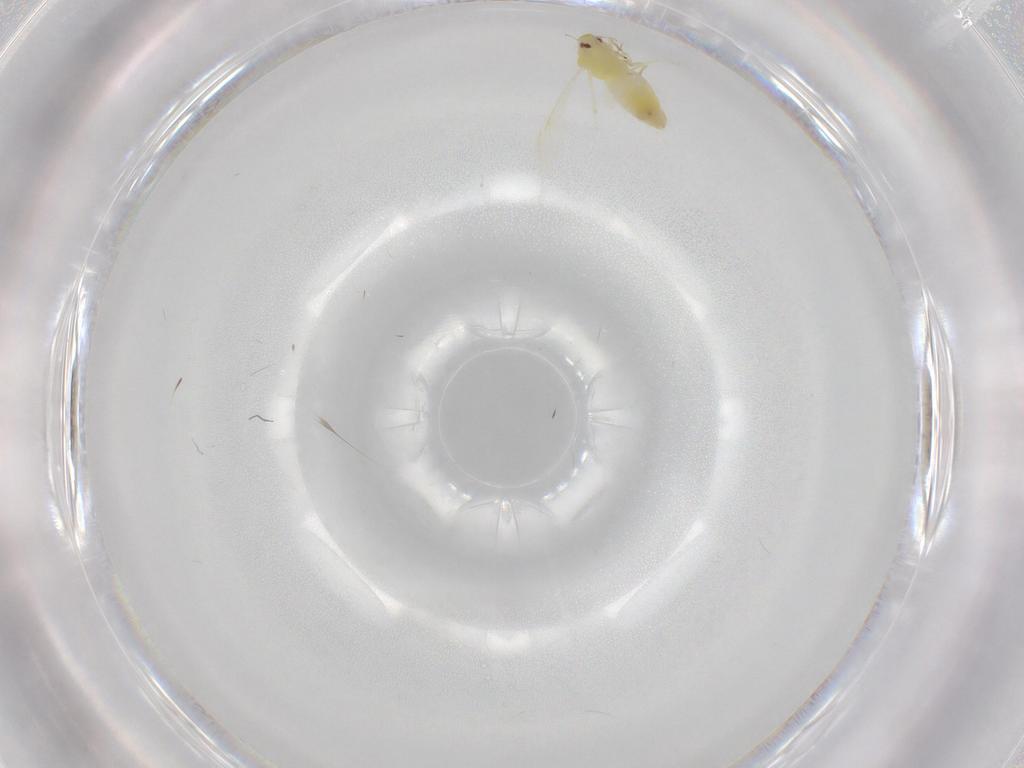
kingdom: Animalia
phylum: Arthropoda
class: Insecta
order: Hemiptera
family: Aleyrodidae
